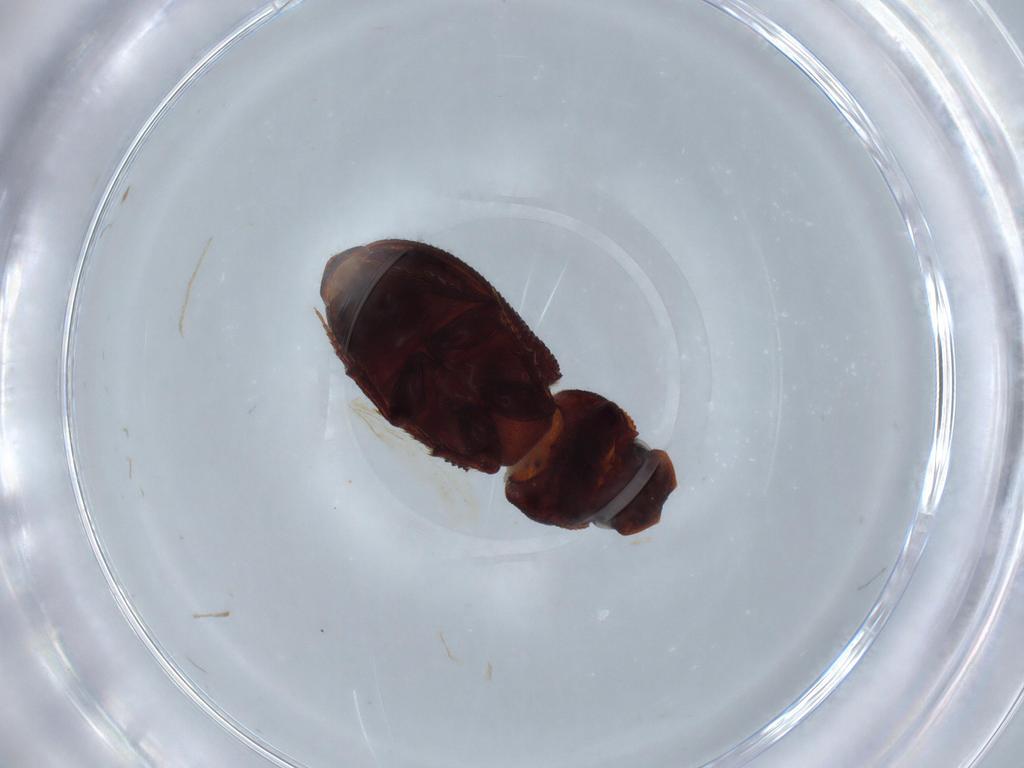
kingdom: Animalia
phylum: Arthropoda
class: Insecta
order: Coleoptera
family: Scarabaeidae
